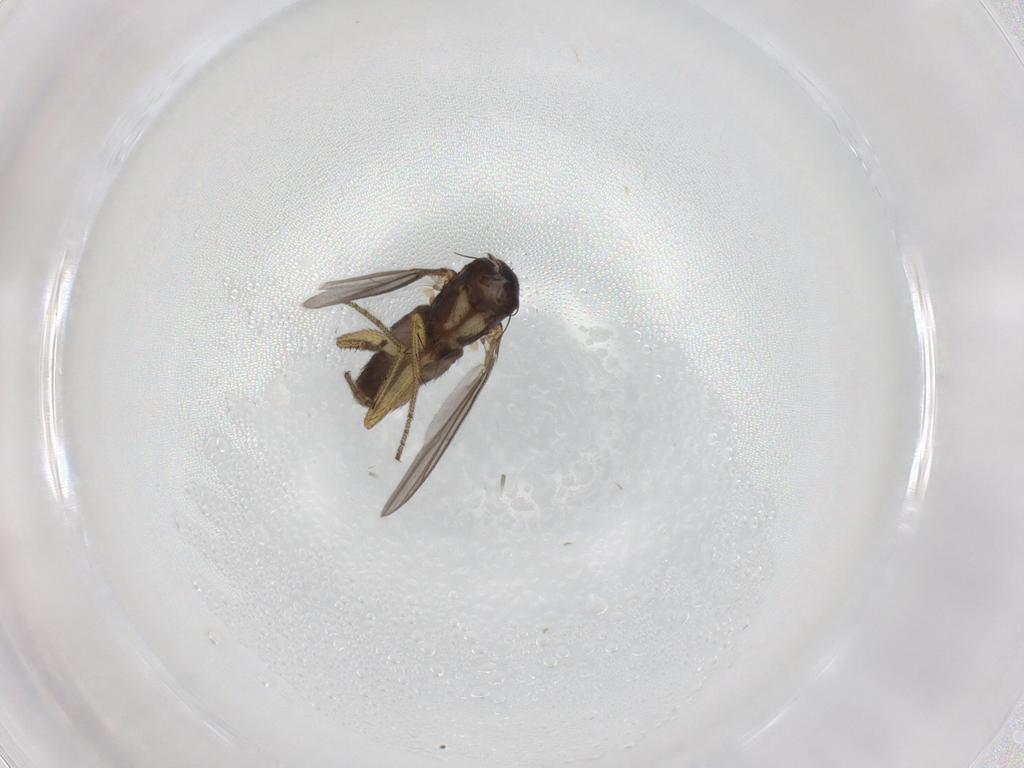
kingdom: Animalia
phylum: Arthropoda
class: Insecta
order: Diptera
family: Dolichopodidae
